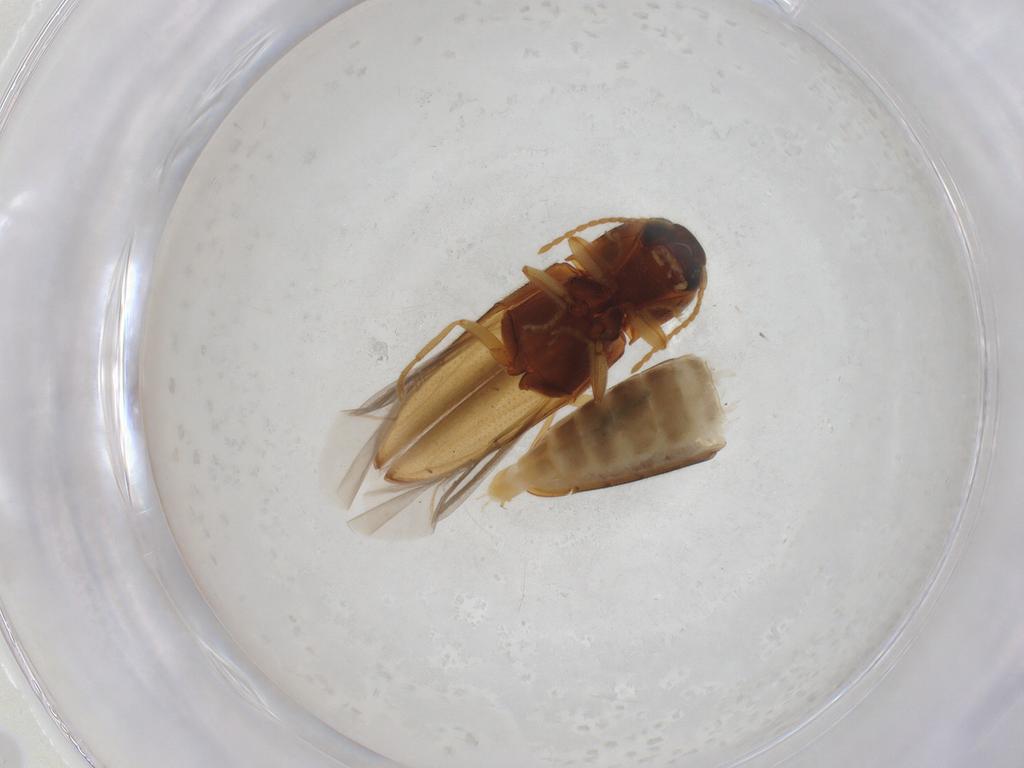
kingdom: Animalia
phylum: Arthropoda
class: Insecta
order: Coleoptera
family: Elateridae
